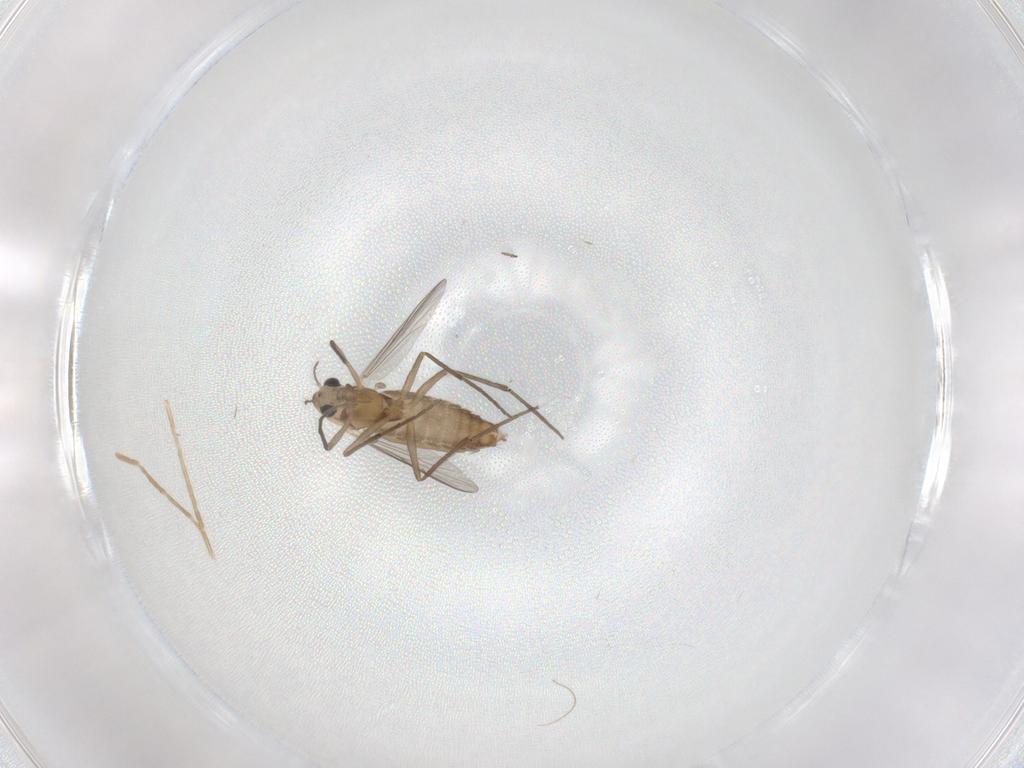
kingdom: Animalia
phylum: Arthropoda
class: Insecta
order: Diptera
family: Chironomidae
